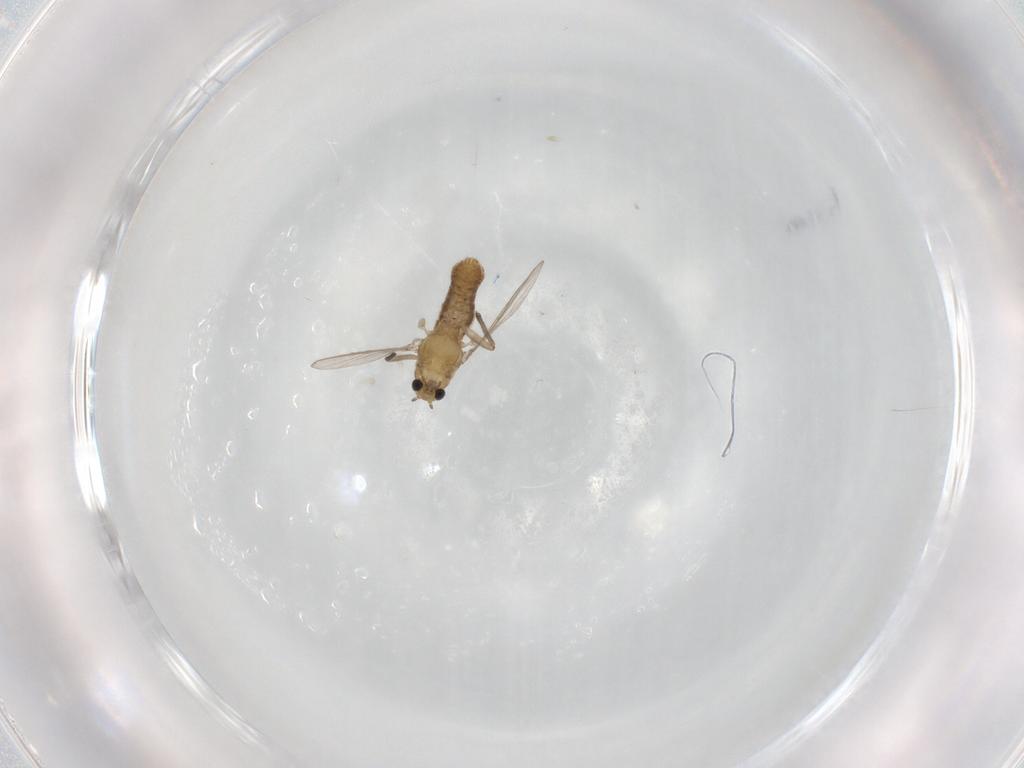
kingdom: Animalia
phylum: Arthropoda
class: Insecta
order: Diptera
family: Chironomidae
